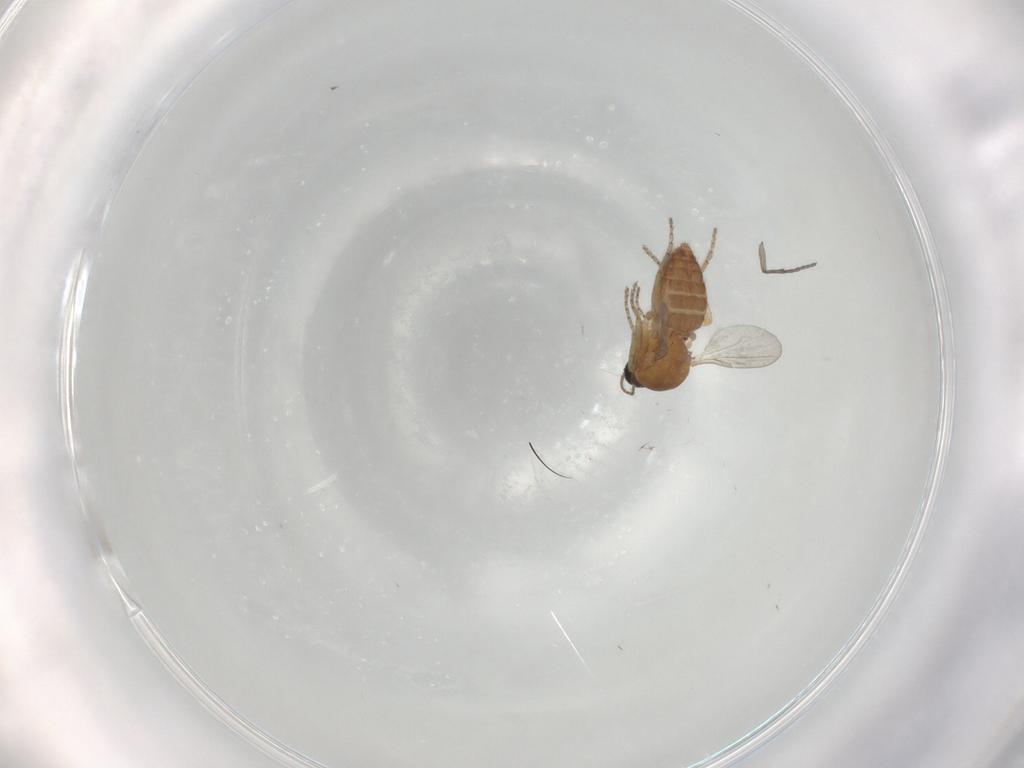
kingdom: Animalia
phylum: Arthropoda
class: Insecta
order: Diptera
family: Ceratopogonidae
